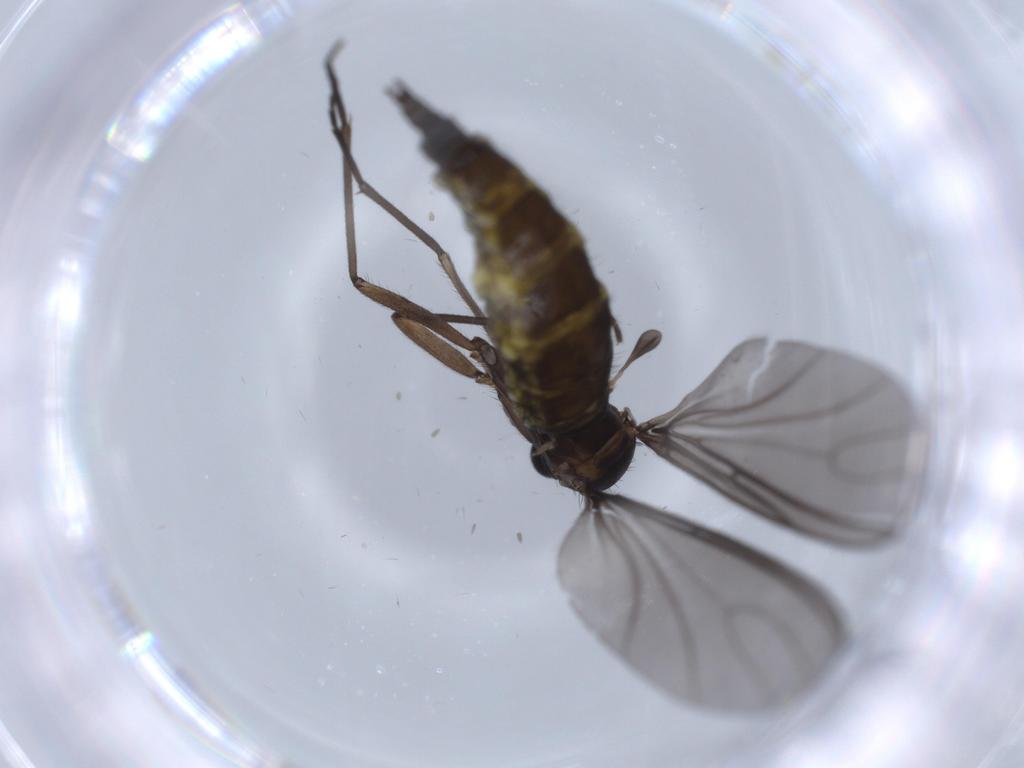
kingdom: Animalia
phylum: Arthropoda
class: Insecta
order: Diptera
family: Sciaridae
